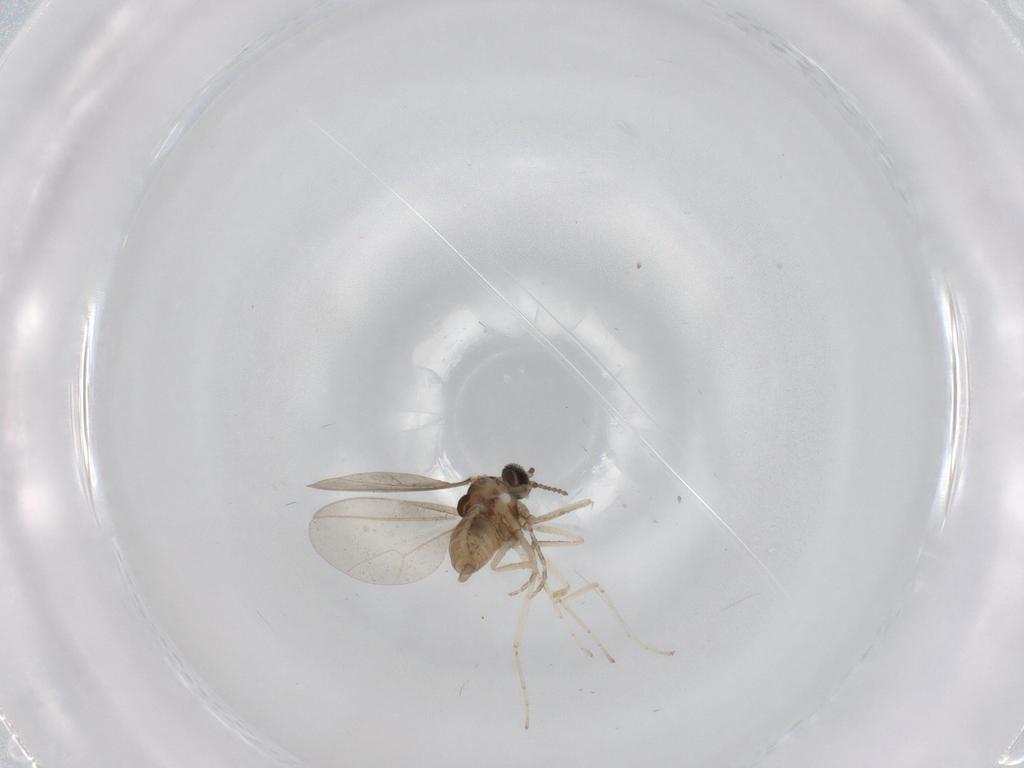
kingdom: Animalia
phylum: Arthropoda
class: Insecta
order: Diptera
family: Cecidomyiidae
